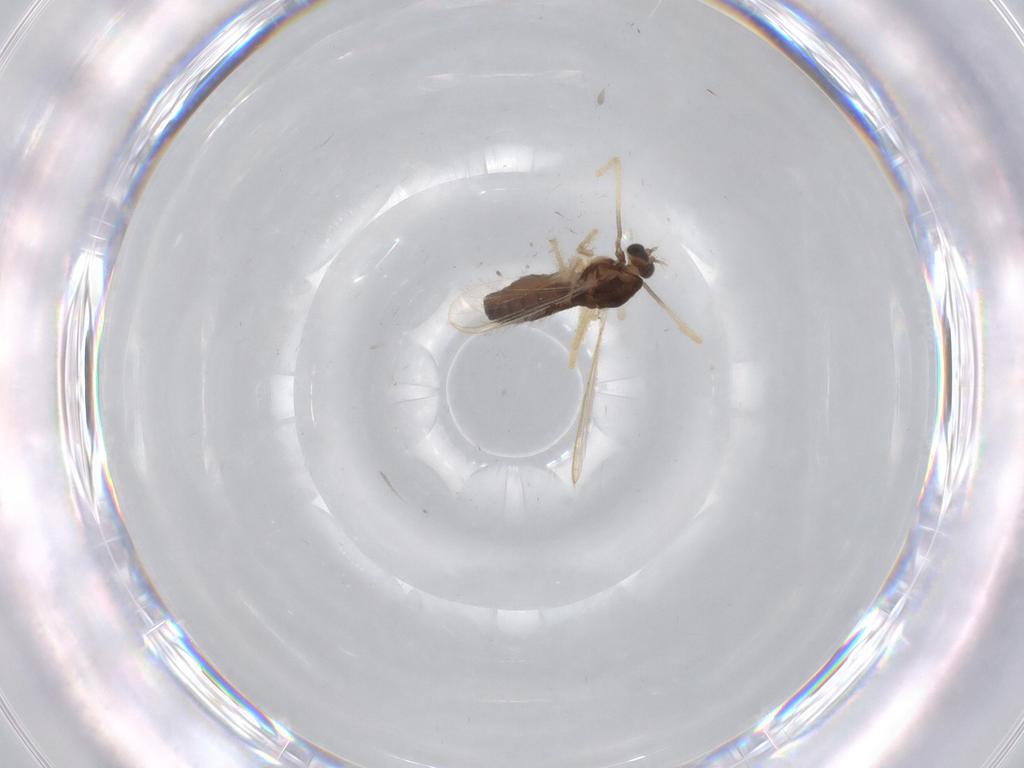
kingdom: Animalia
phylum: Arthropoda
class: Insecta
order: Diptera
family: Chironomidae
